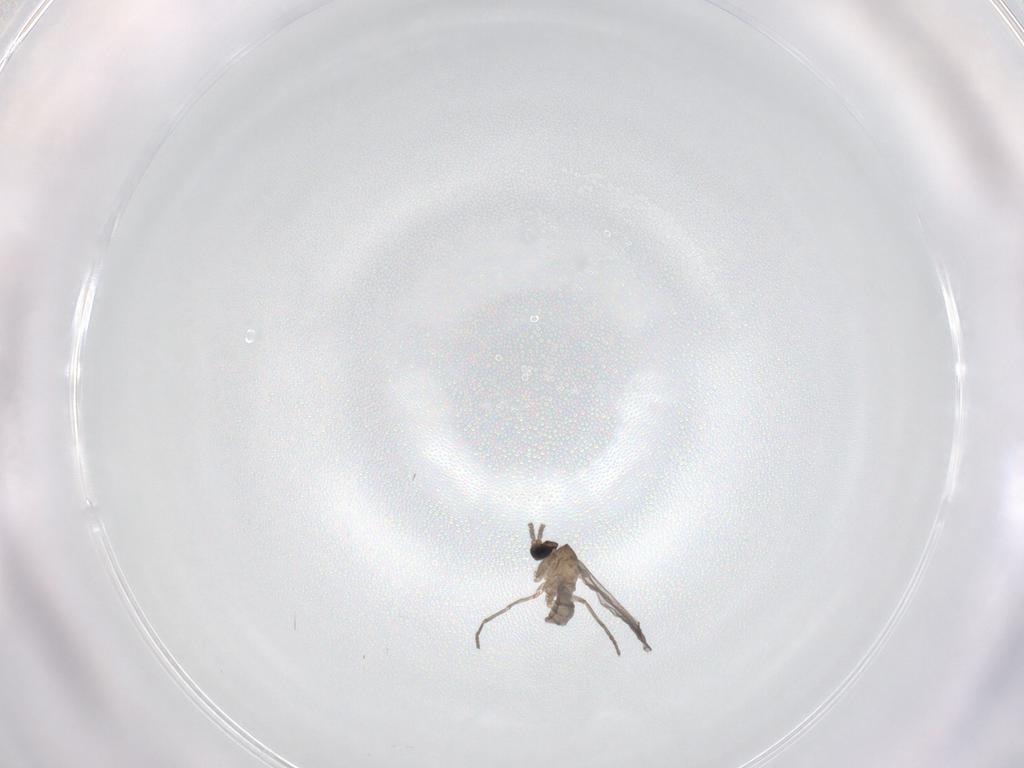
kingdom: Animalia
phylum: Arthropoda
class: Insecta
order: Diptera
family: Sciaridae
